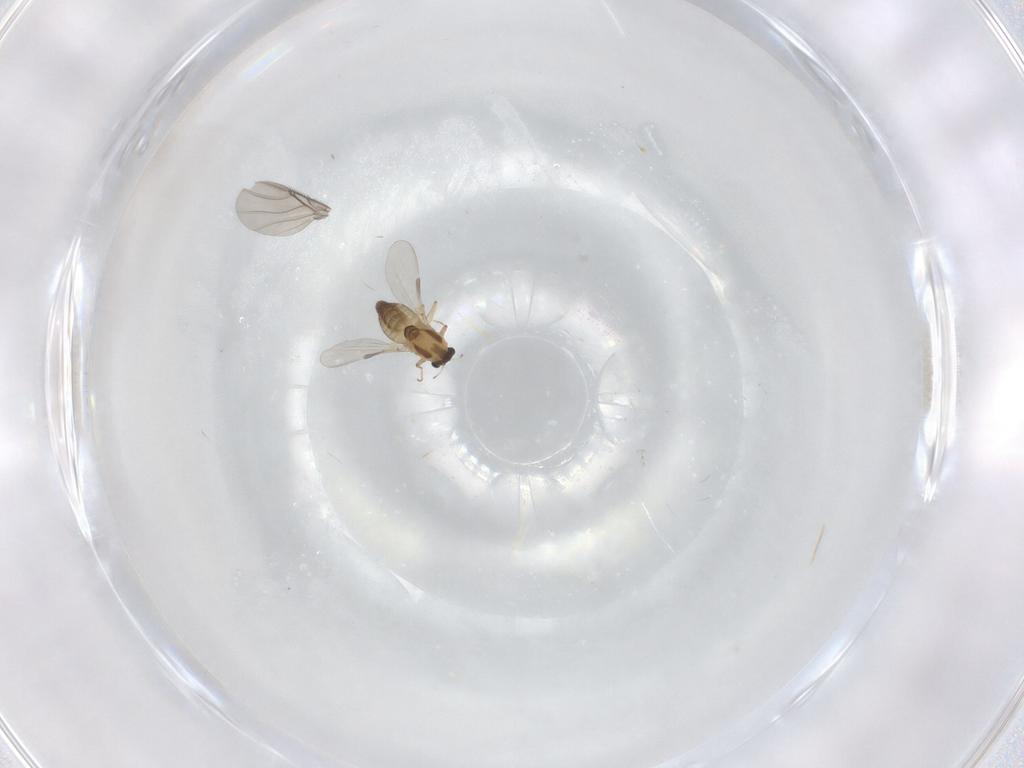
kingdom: Animalia
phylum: Arthropoda
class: Insecta
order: Diptera
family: Chironomidae
